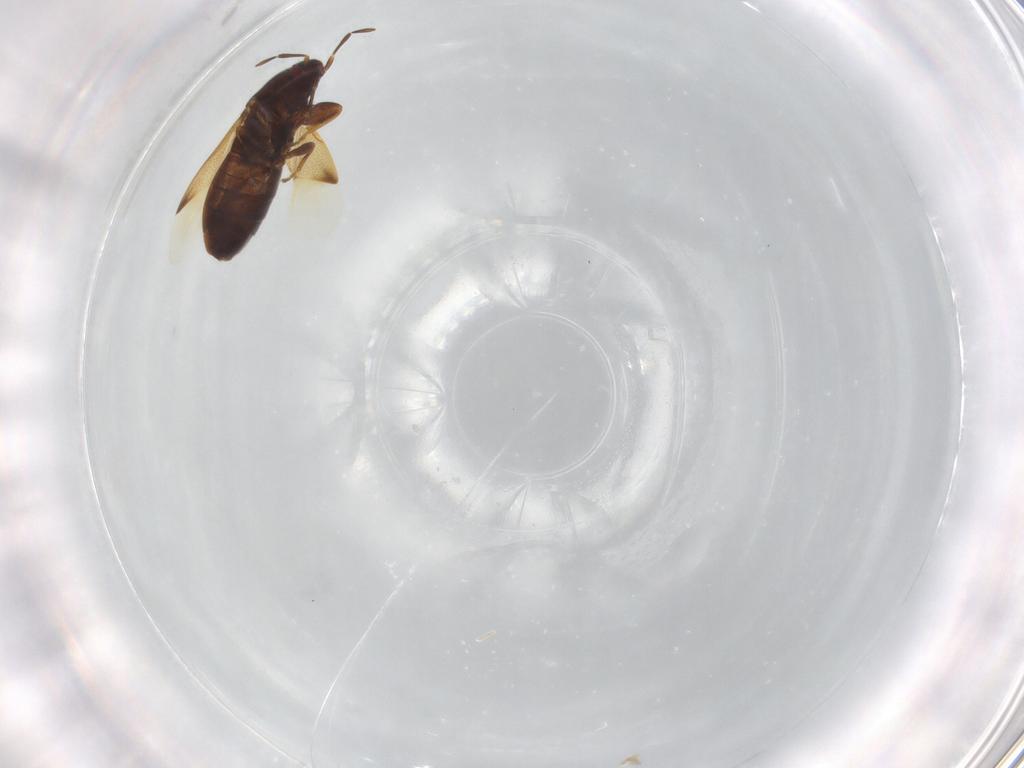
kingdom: Animalia
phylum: Arthropoda
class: Insecta
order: Hemiptera
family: Rhyparochromidae
